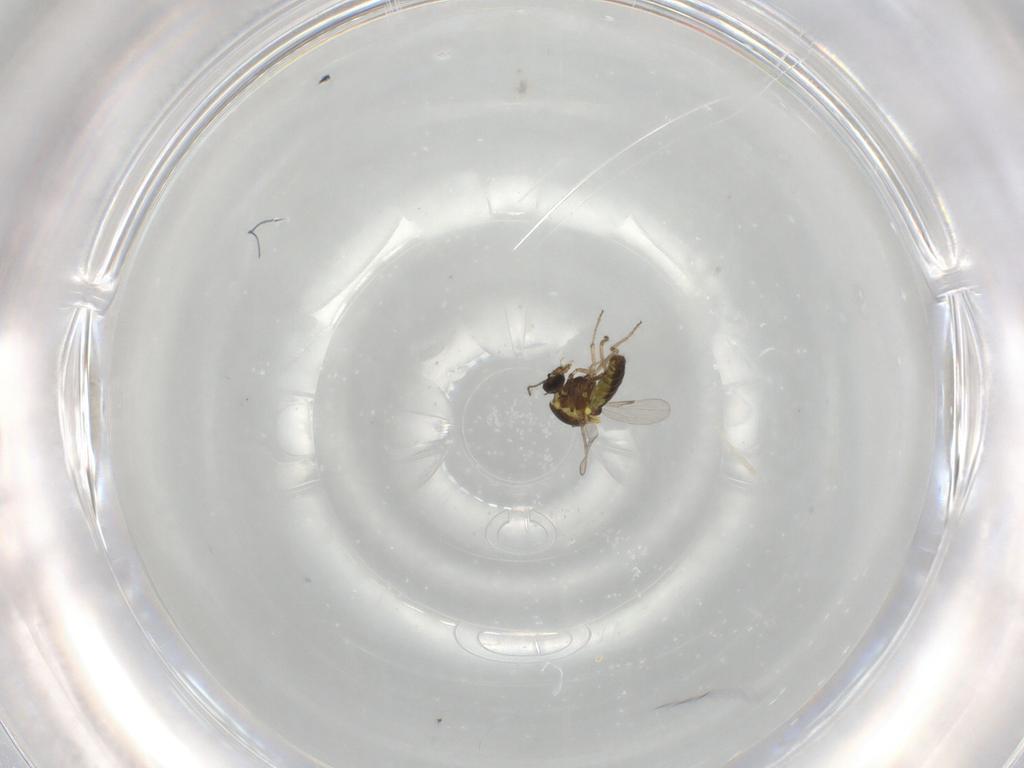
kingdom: Animalia
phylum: Arthropoda
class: Insecta
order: Diptera
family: Ceratopogonidae
